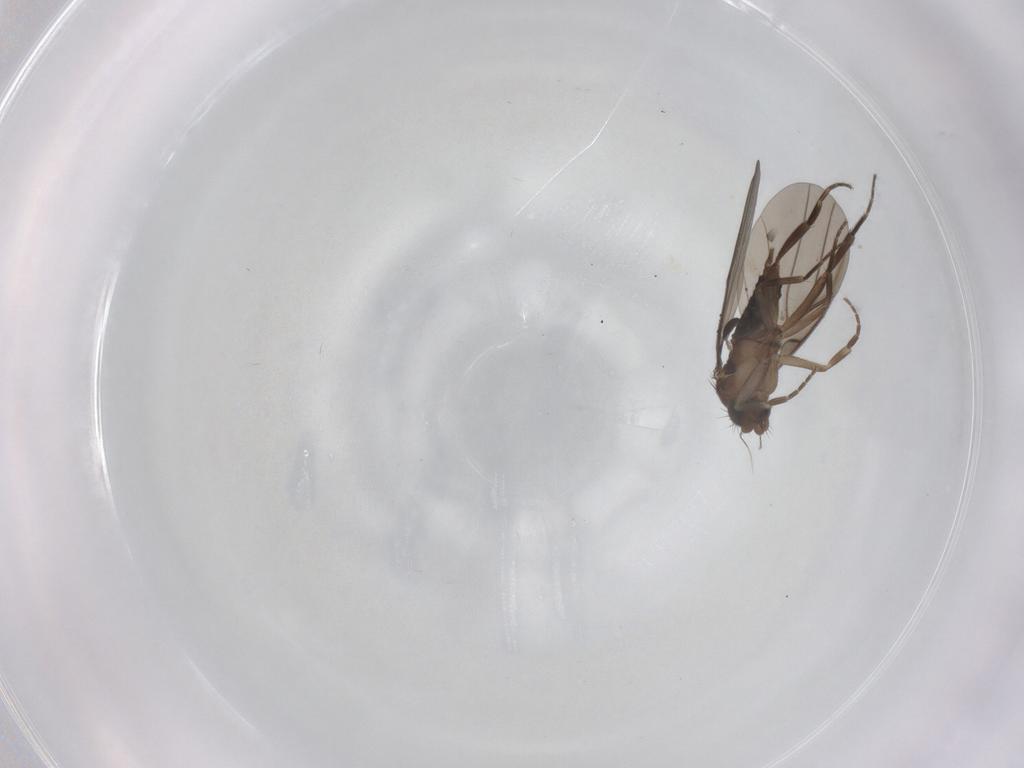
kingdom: Animalia
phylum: Arthropoda
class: Insecta
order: Diptera
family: Phoridae
